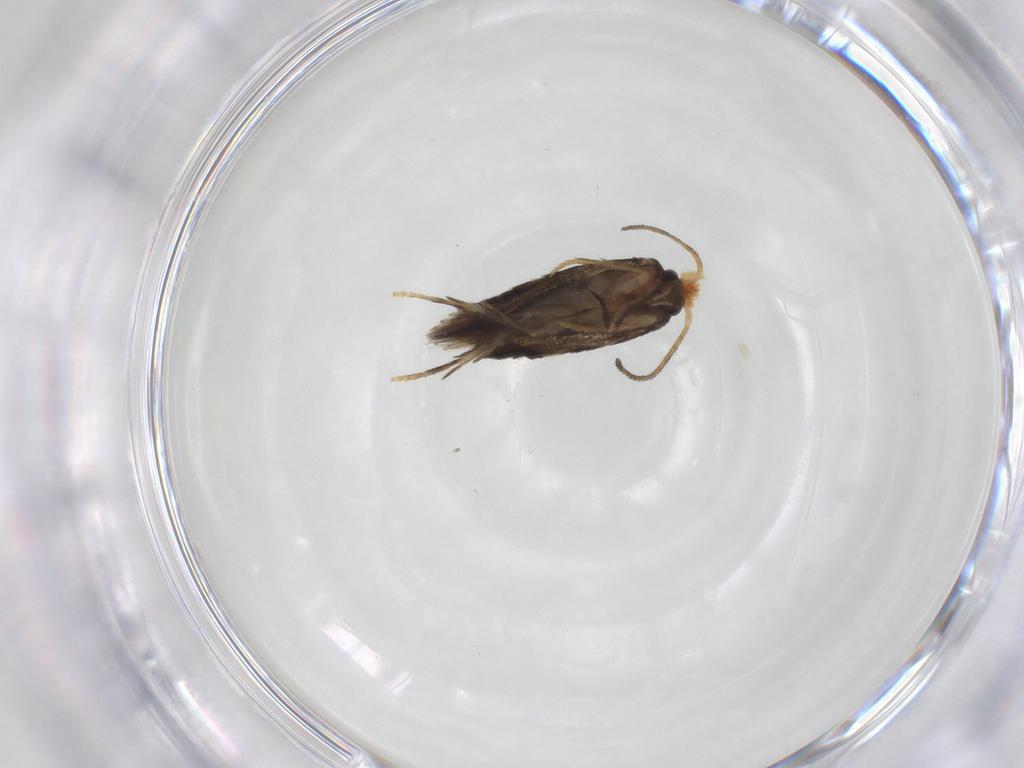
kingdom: Animalia
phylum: Arthropoda
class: Insecta
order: Lepidoptera
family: Nepticulidae
